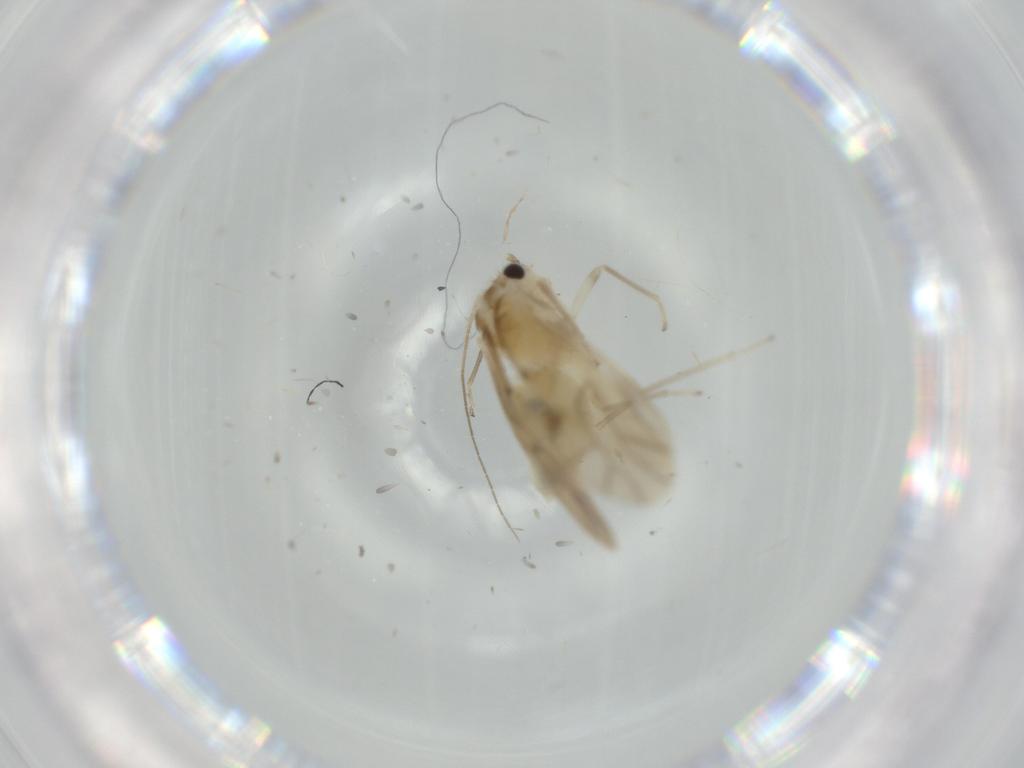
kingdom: Animalia
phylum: Arthropoda
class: Insecta
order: Psocodea
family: Caeciliusidae
